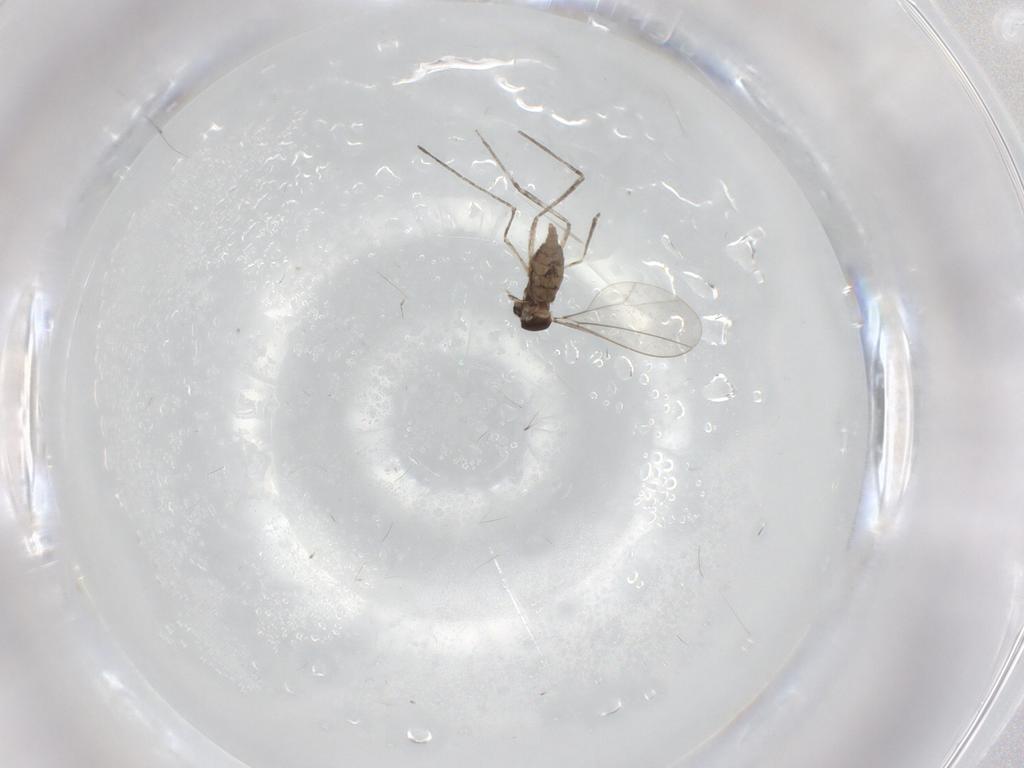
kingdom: Animalia
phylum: Arthropoda
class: Insecta
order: Diptera
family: Cecidomyiidae
